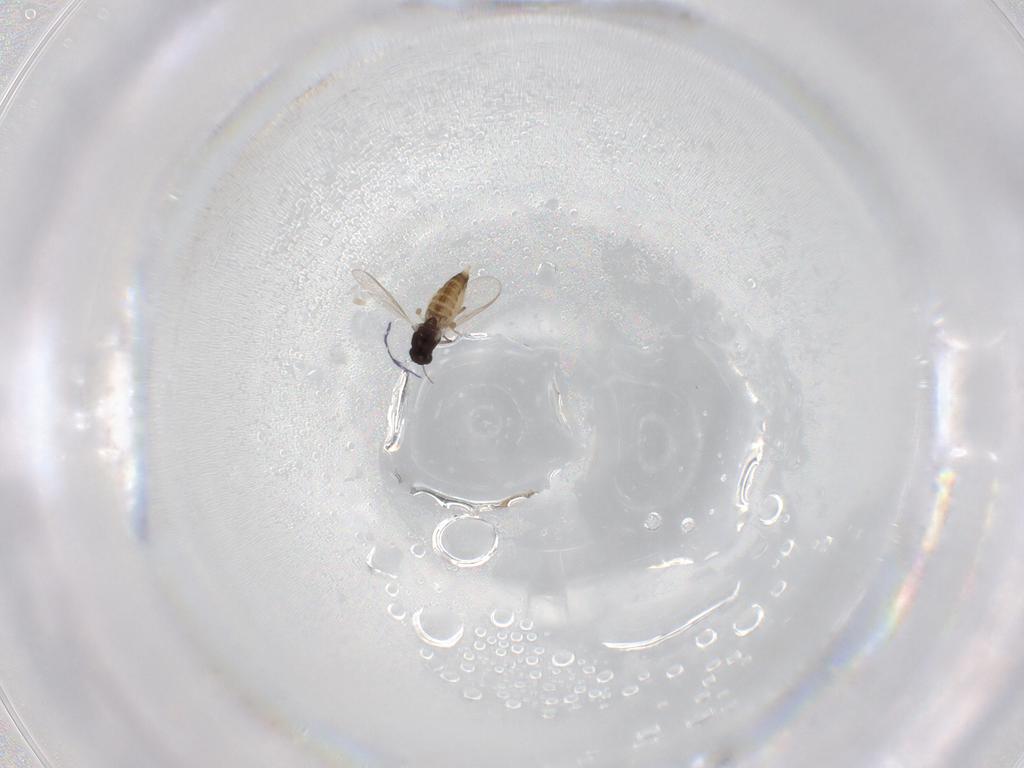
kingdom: Animalia
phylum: Arthropoda
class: Insecta
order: Diptera
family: Chironomidae
